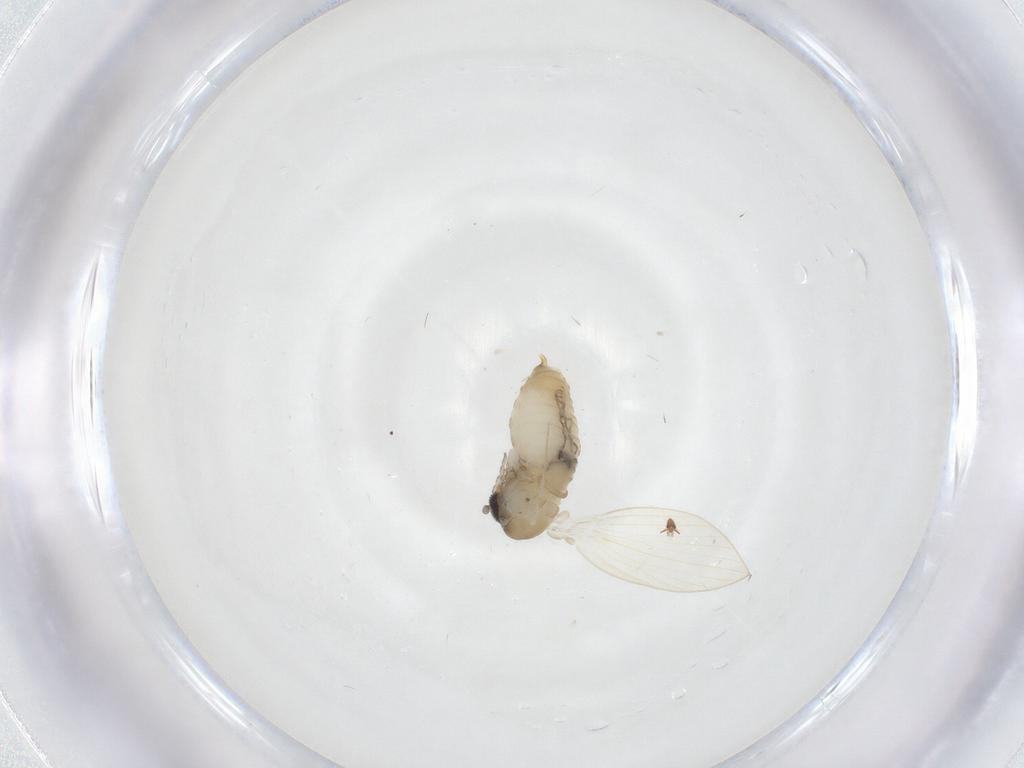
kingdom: Animalia
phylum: Arthropoda
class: Insecta
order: Diptera
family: Psychodidae
